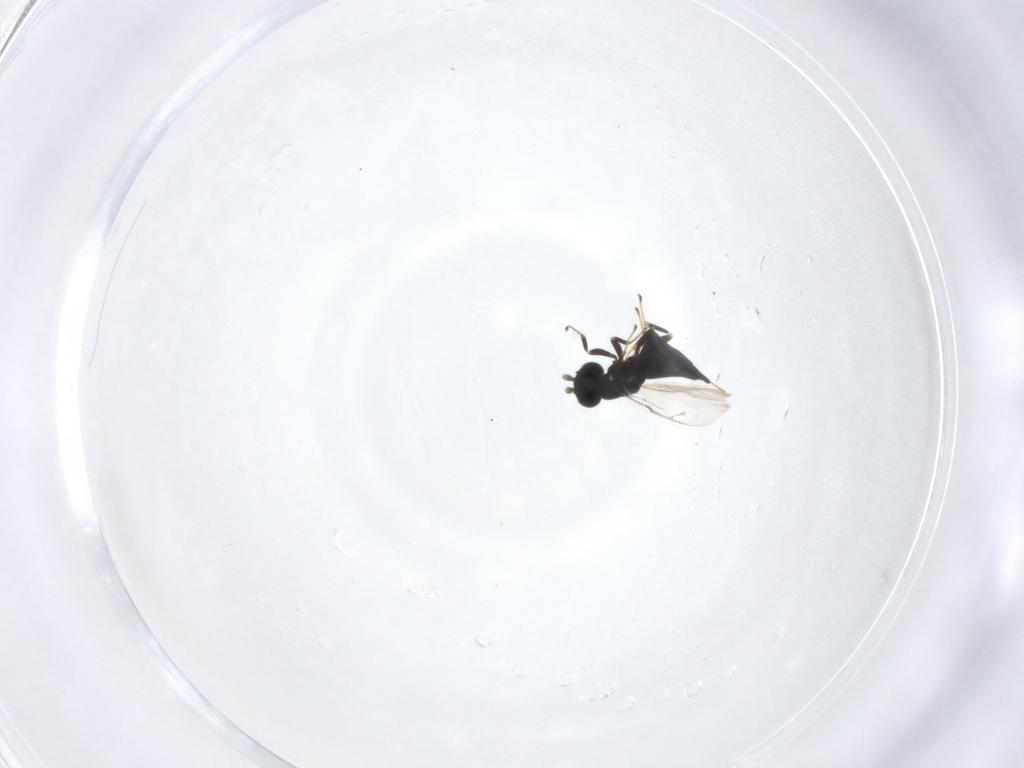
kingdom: Animalia
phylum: Arthropoda
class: Insecta
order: Hymenoptera
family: Pteromalidae
